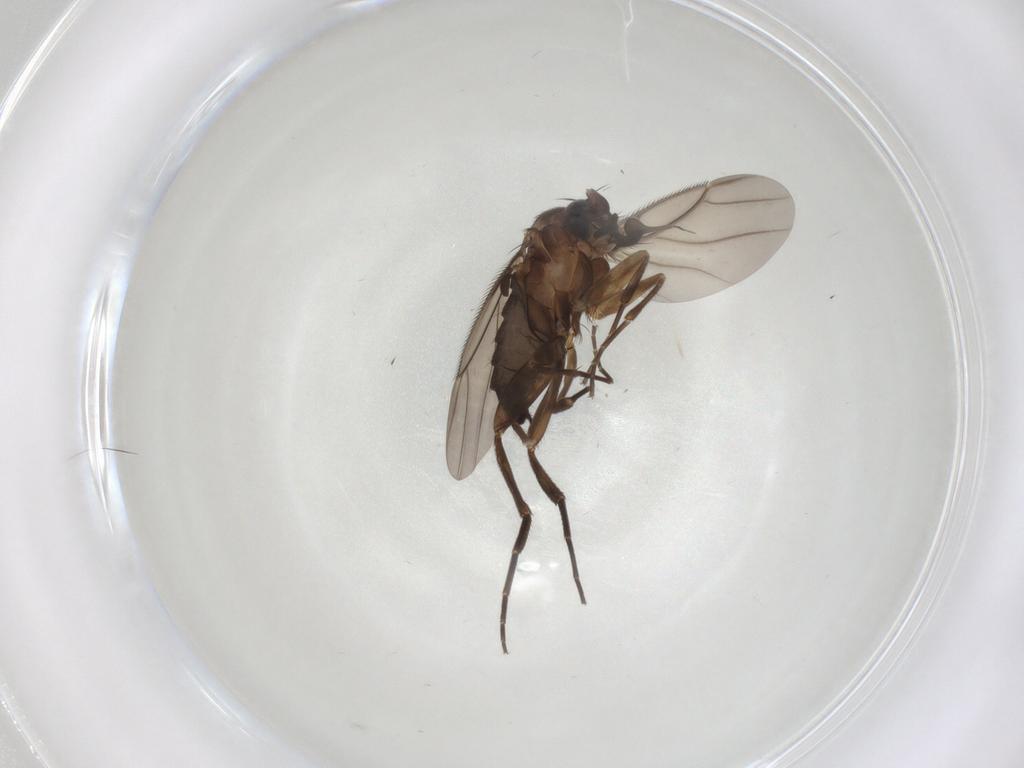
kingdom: Animalia
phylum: Arthropoda
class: Insecta
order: Diptera
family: Phoridae
